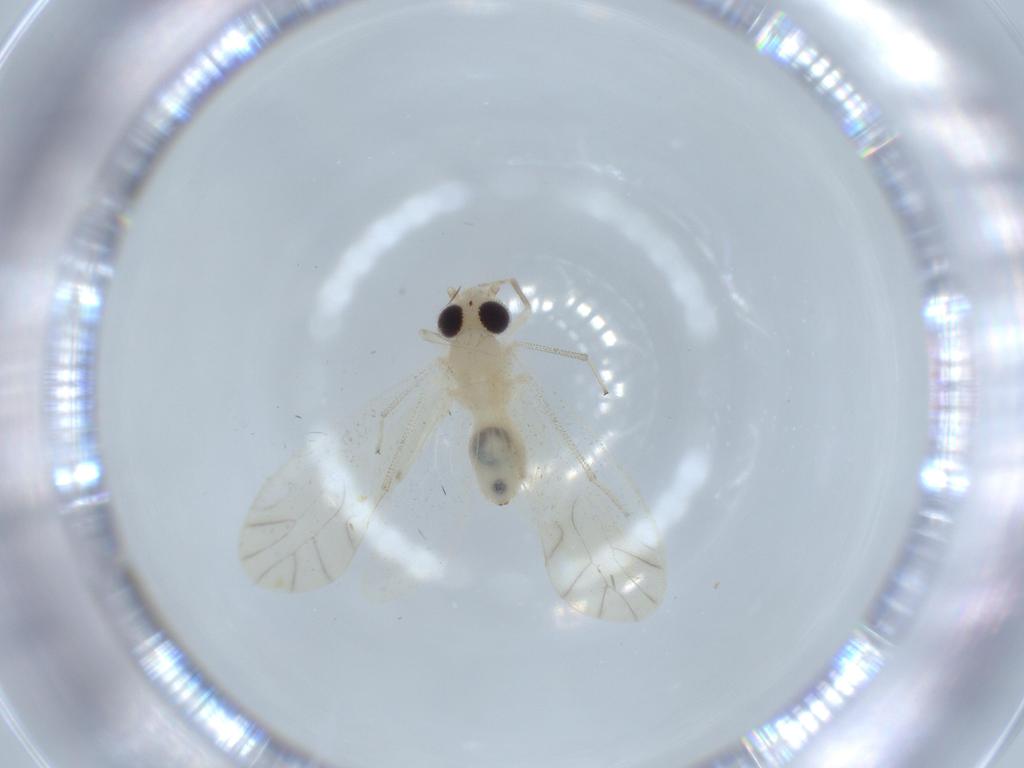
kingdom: Animalia
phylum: Arthropoda
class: Insecta
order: Psocodea
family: Caeciliusidae
